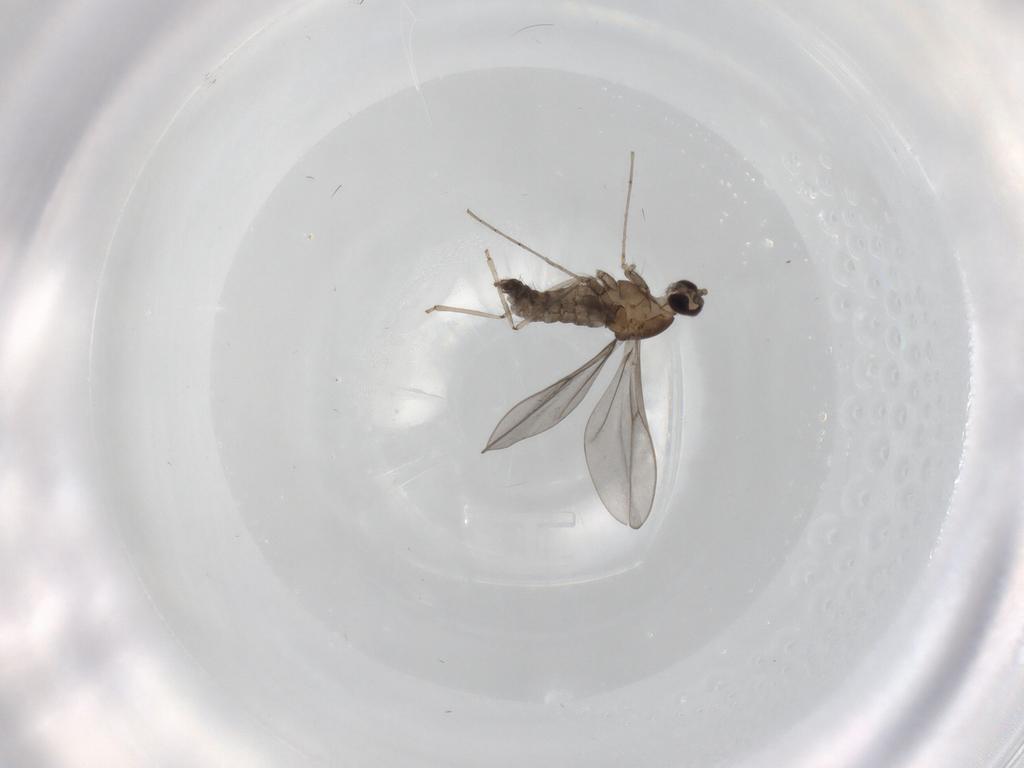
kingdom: Animalia
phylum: Arthropoda
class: Insecta
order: Diptera
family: Cecidomyiidae
